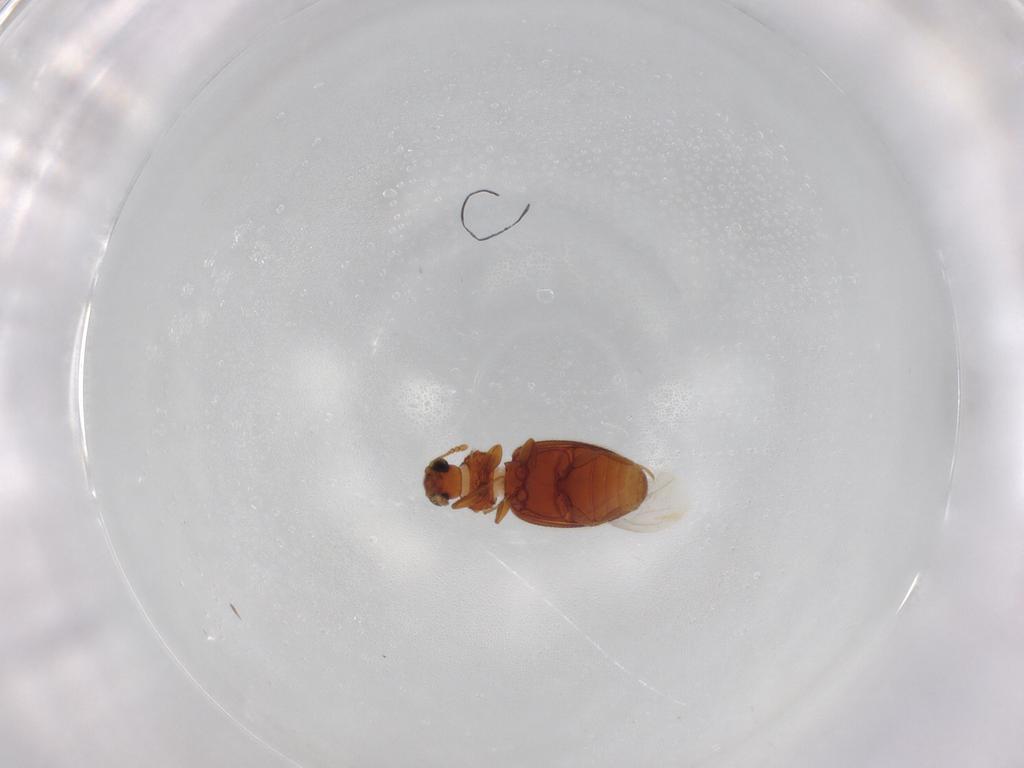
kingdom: Animalia
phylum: Arthropoda
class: Insecta
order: Coleoptera
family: Latridiidae
